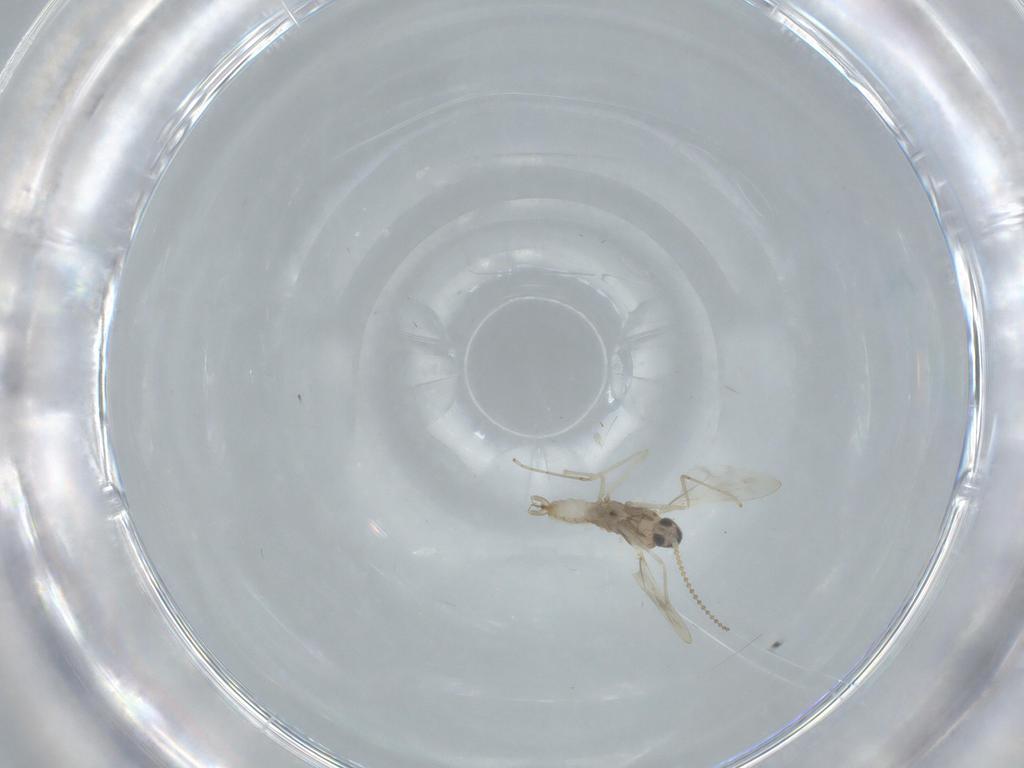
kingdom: Animalia
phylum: Arthropoda
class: Insecta
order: Diptera
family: Cecidomyiidae
